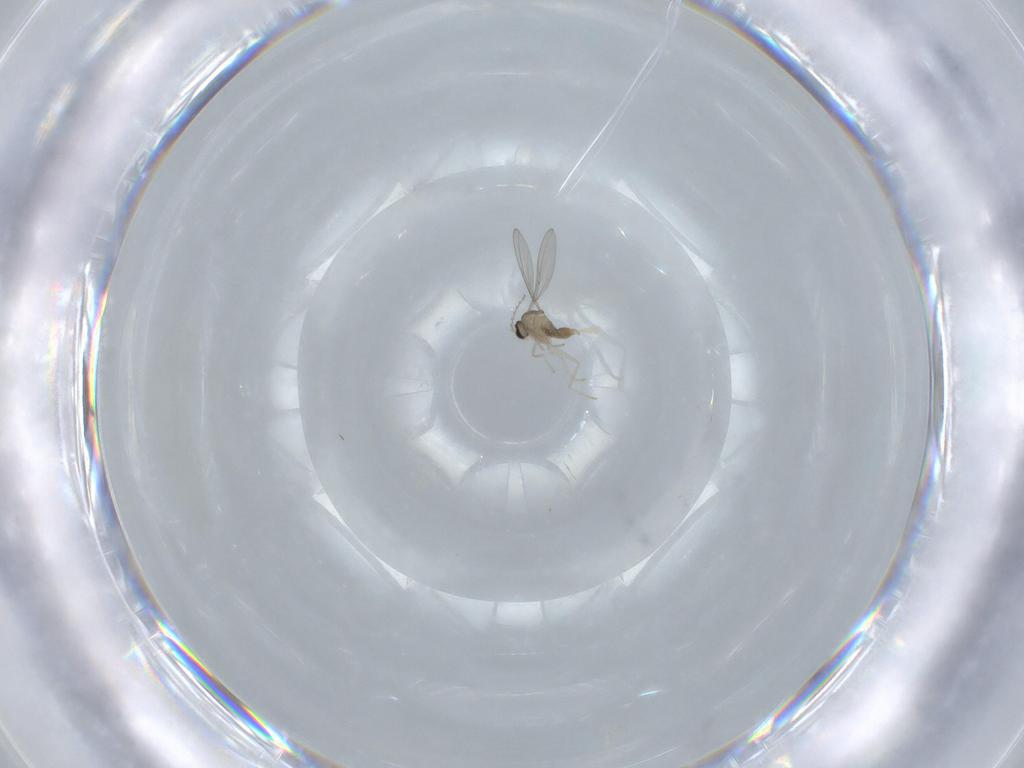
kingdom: Animalia
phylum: Arthropoda
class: Insecta
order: Diptera
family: Cecidomyiidae
